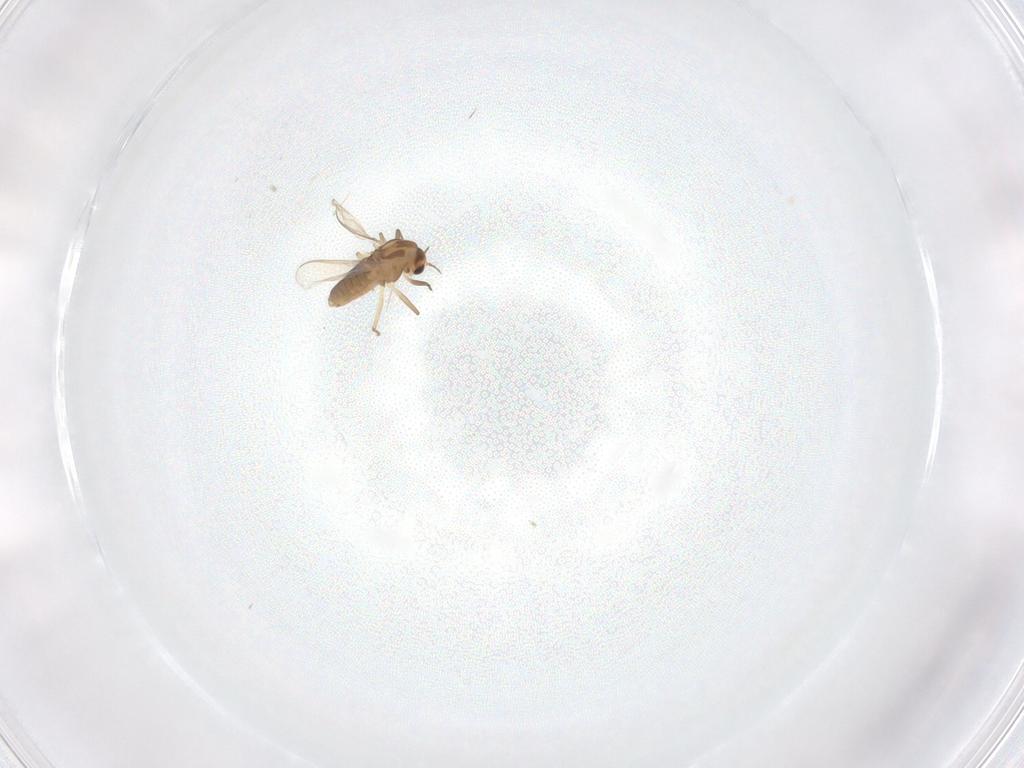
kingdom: Animalia
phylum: Arthropoda
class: Insecta
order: Diptera
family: Chironomidae
